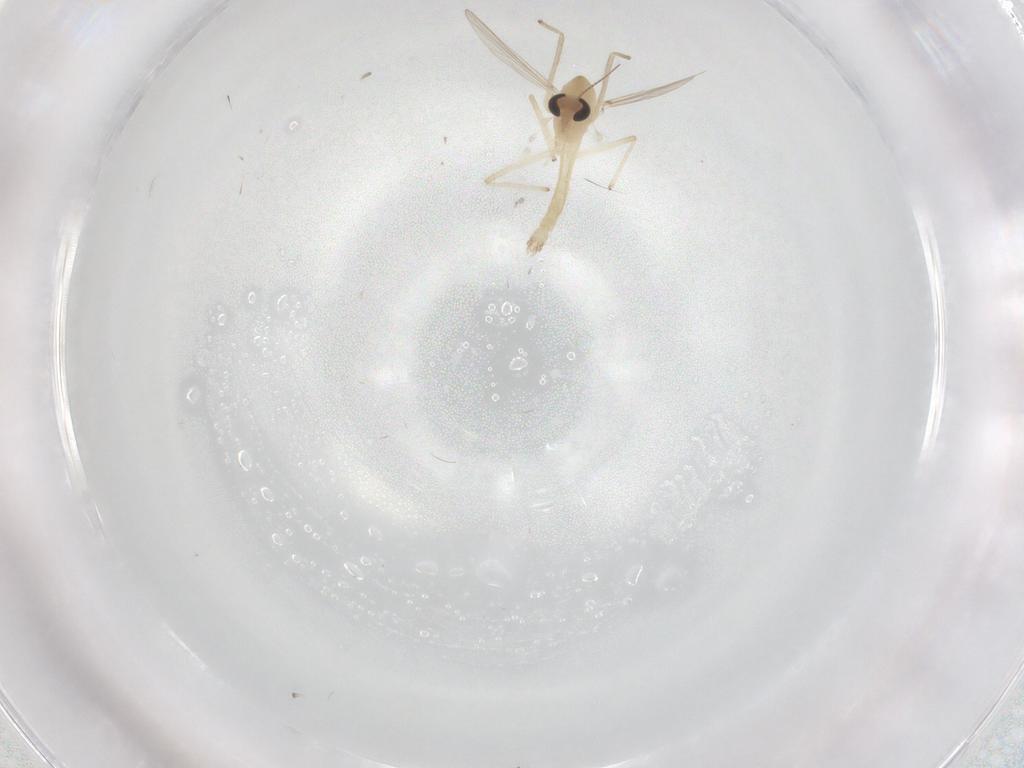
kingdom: Animalia
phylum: Arthropoda
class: Insecta
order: Diptera
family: Chironomidae
